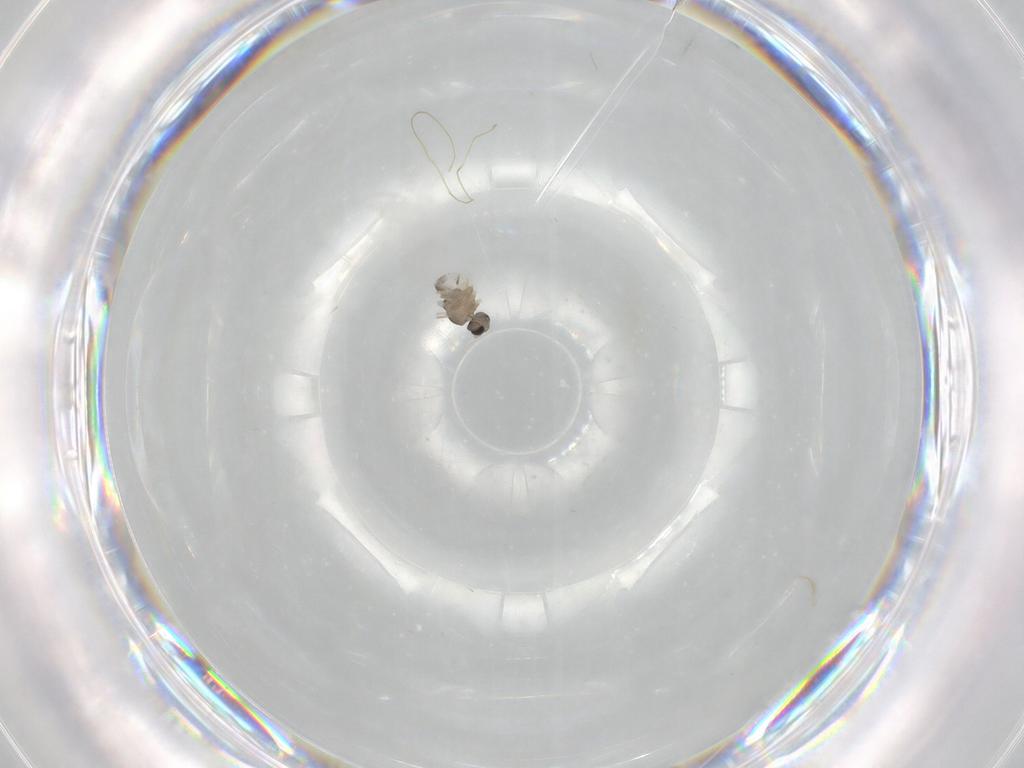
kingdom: Animalia
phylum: Arthropoda
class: Insecta
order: Diptera
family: Cecidomyiidae
